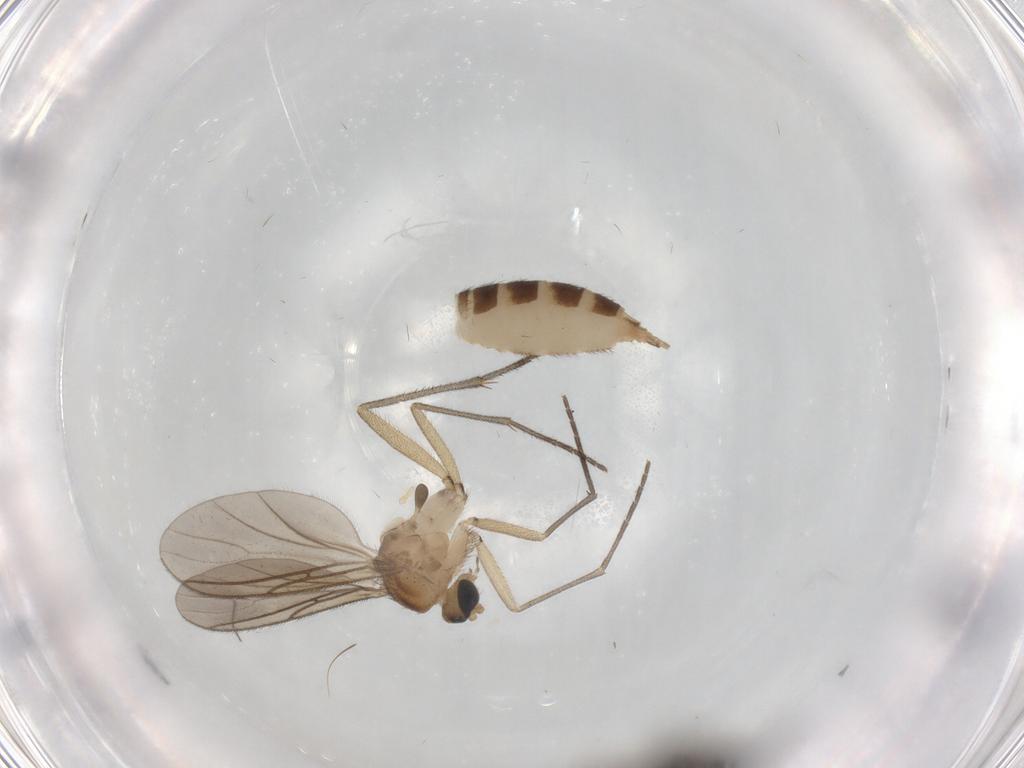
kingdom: Animalia
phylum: Arthropoda
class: Insecta
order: Diptera
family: Sciaridae
